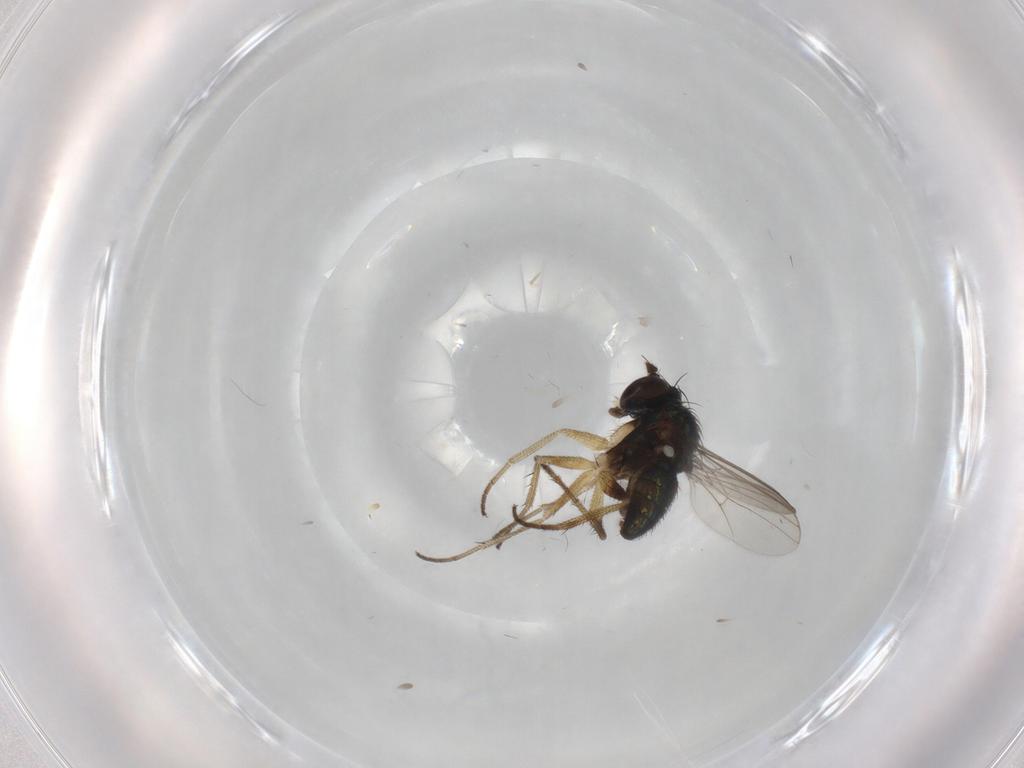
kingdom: Animalia
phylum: Arthropoda
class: Insecta
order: Diptera
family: Dolichopodidae
